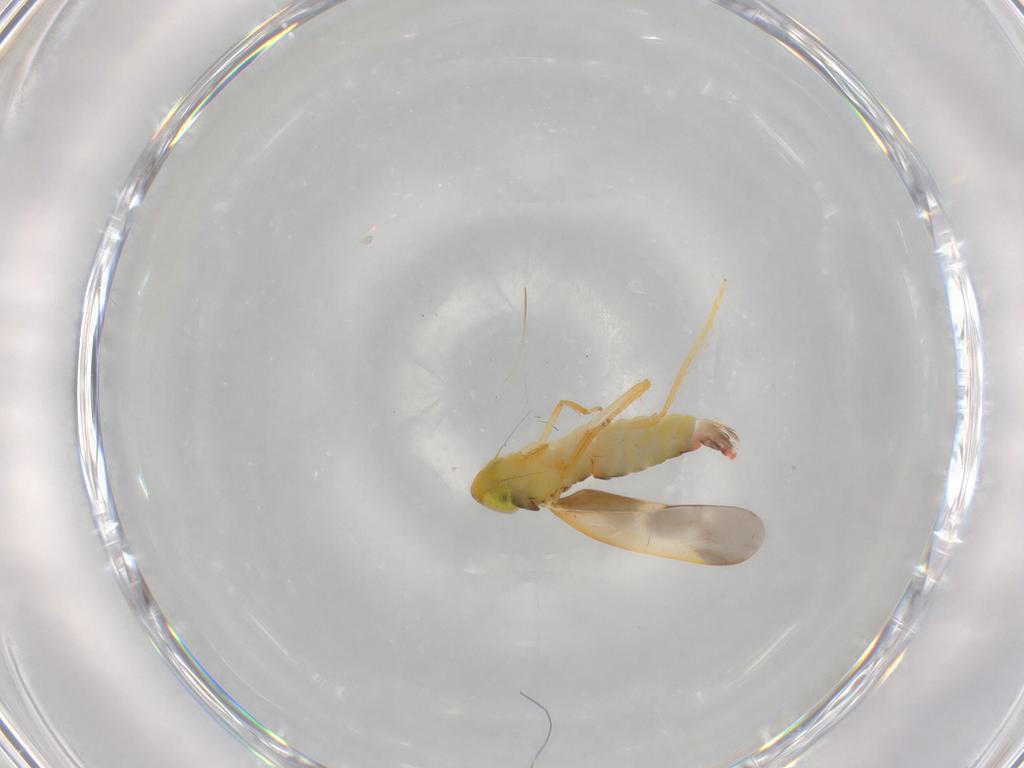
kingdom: Animalia
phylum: Arthropoda
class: Insecta
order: Hemiptera
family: Cicadellidae
